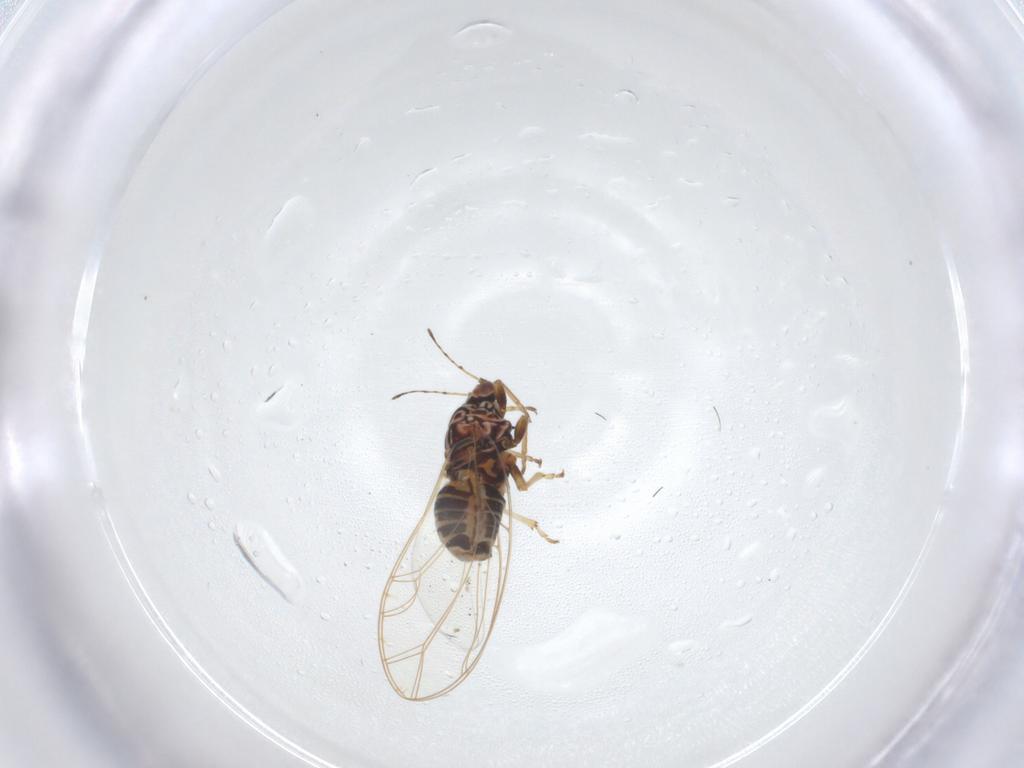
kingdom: Animalia
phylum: Arthropoda
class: Insecta
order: Hemiptera
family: Triozidae
